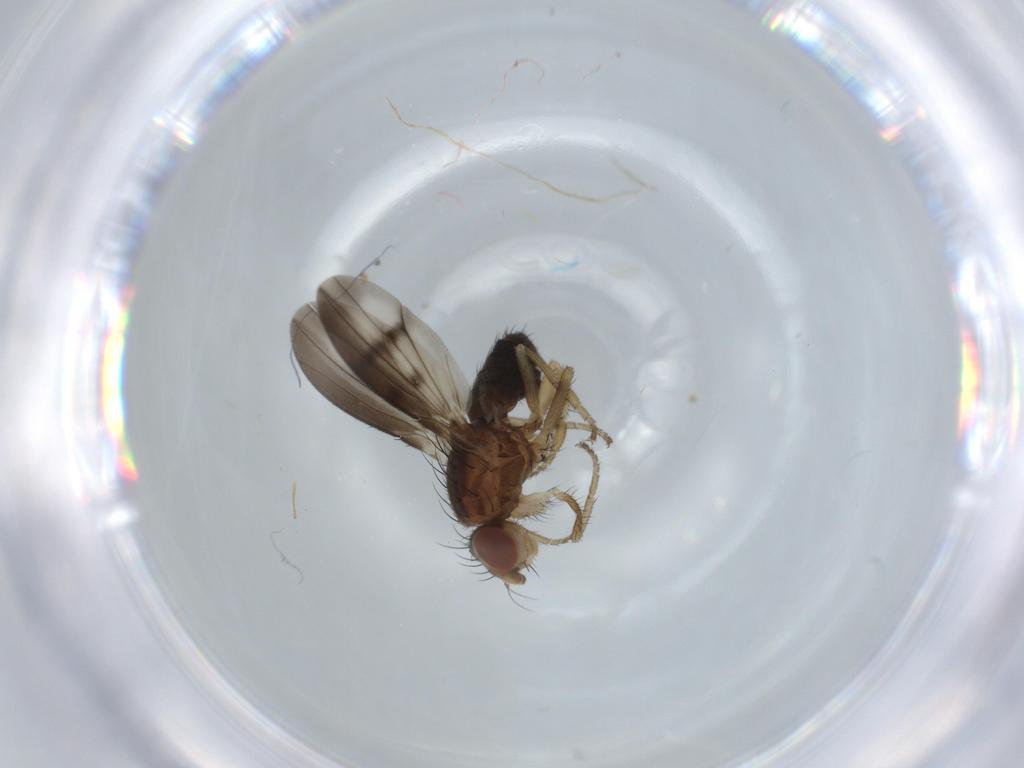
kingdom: Animalia
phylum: Arthropoda
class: Insecta
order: Diptera
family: Heleomyzidae
